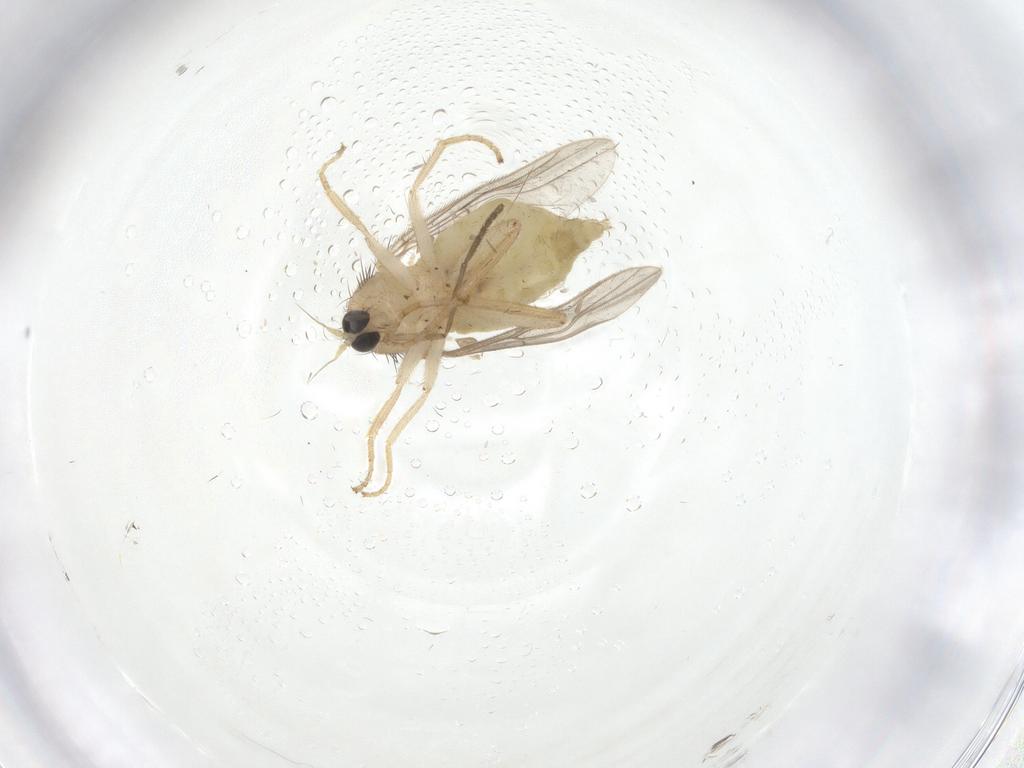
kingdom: Animalia
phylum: Arthropoda
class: Insecta
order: Diptera
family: Hybotidae
